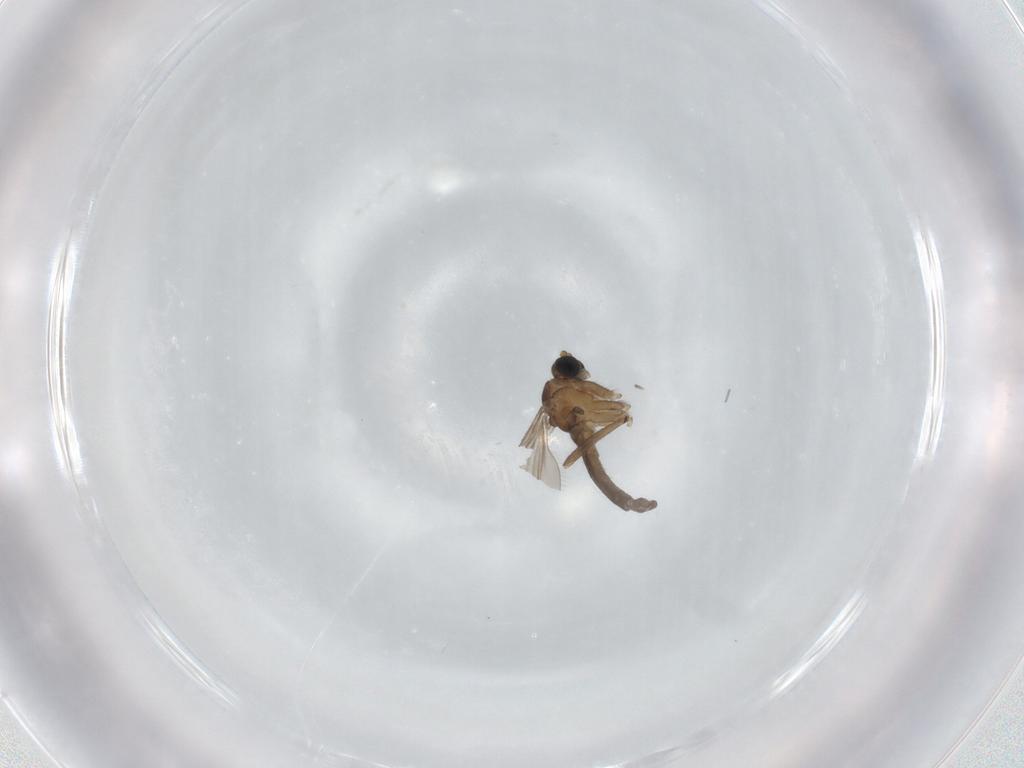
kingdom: Animalia
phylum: Arthropoda
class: Insecta
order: Diptera
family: Sciaridae
